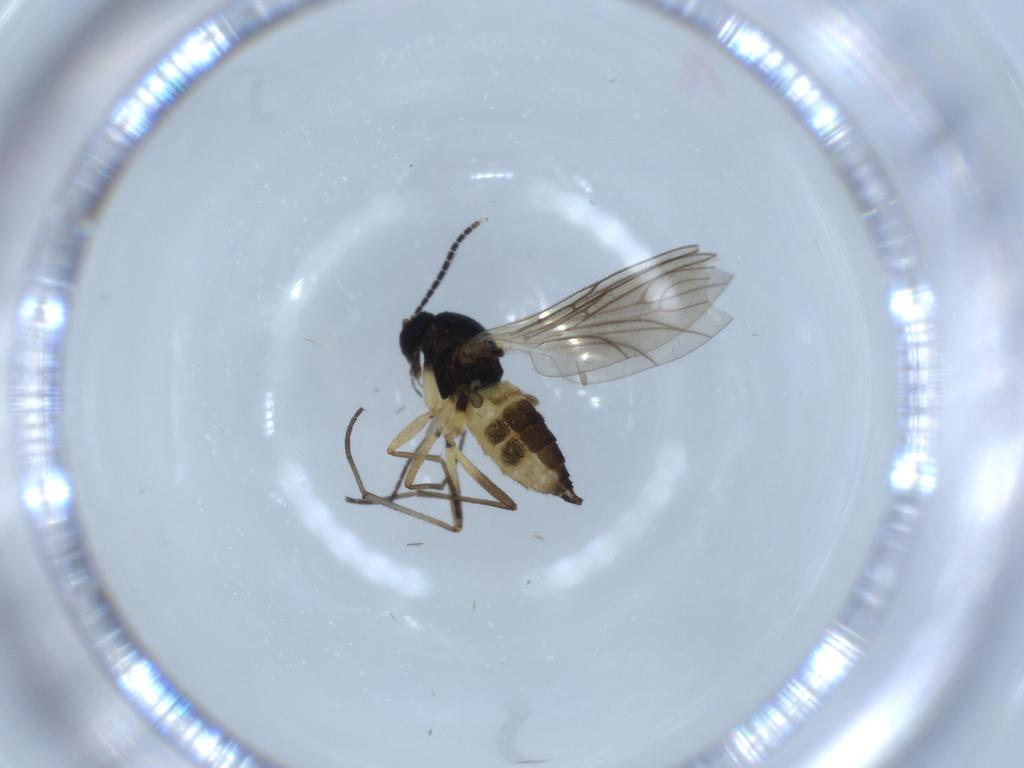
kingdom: Animalia
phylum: Arthropoda
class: Insecta
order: Diptera
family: Sciaridae
